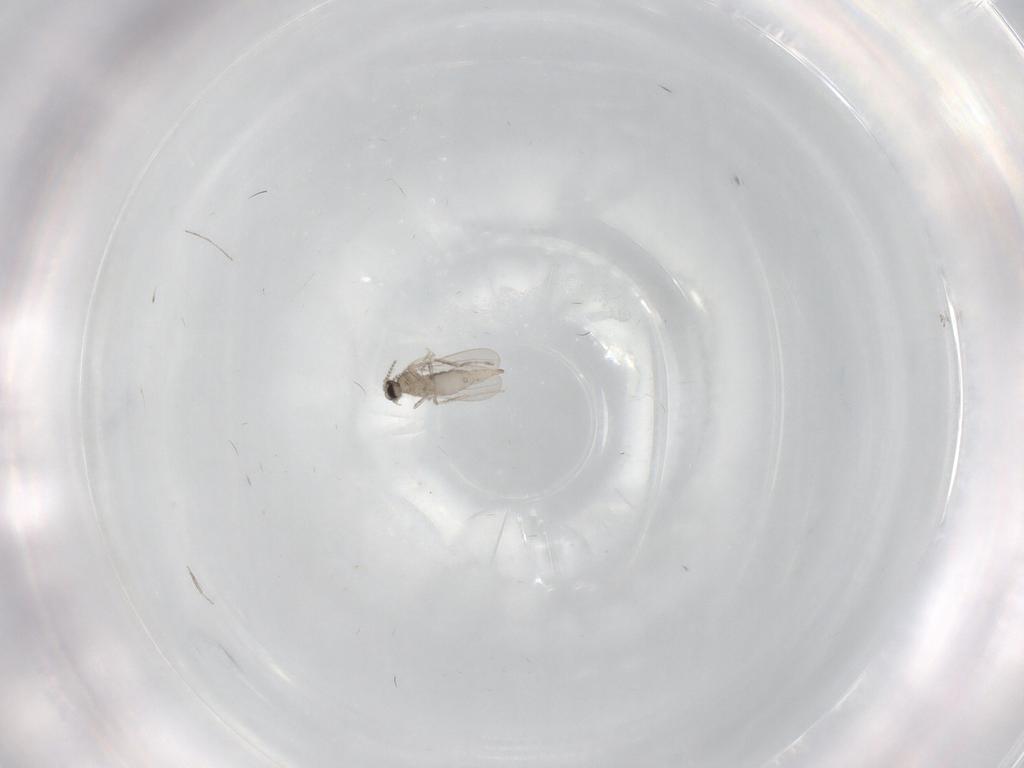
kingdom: Animalia
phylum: Arthropoda
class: Insecta
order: Diptera
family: Cecidomyiidae
